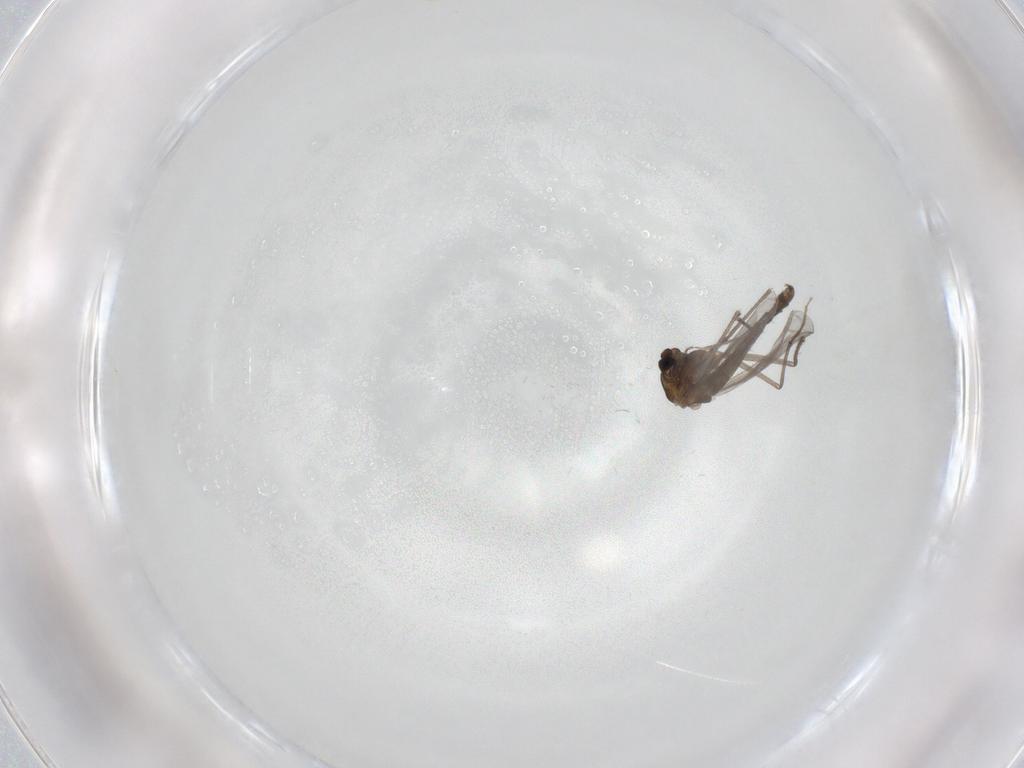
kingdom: Animalia
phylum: Arthropoda
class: Insecta
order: Diptera
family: Chironomidae
